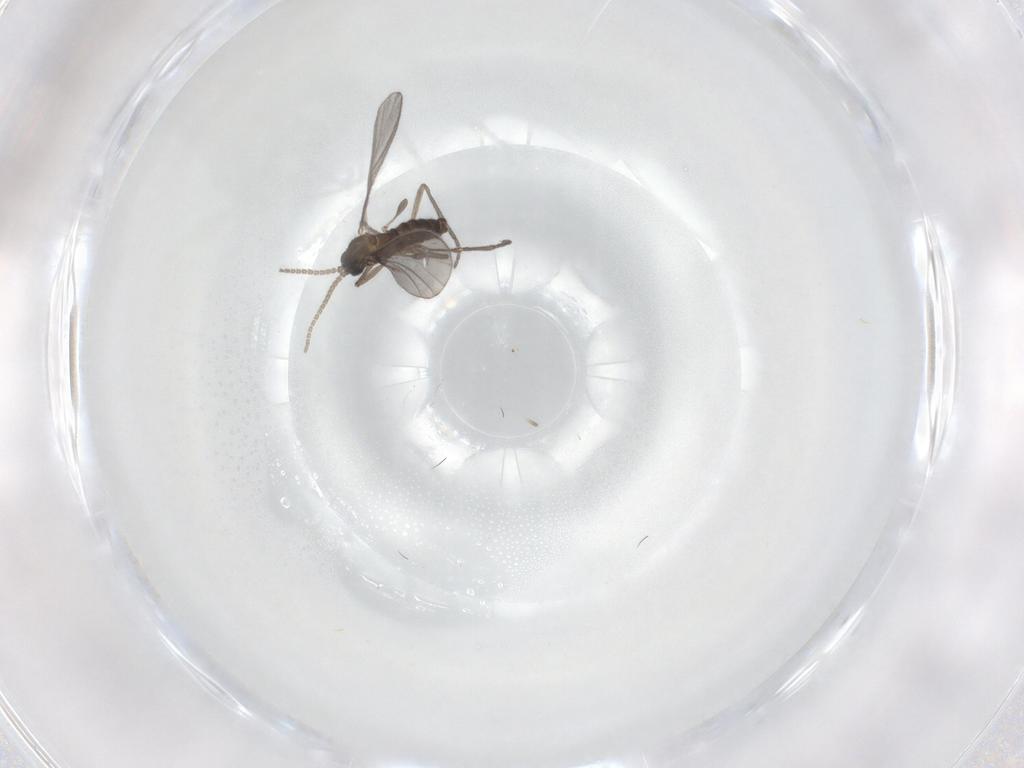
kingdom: Animalia
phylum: Arthropoda
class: Insecta
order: Diptera
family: Sciaridae
